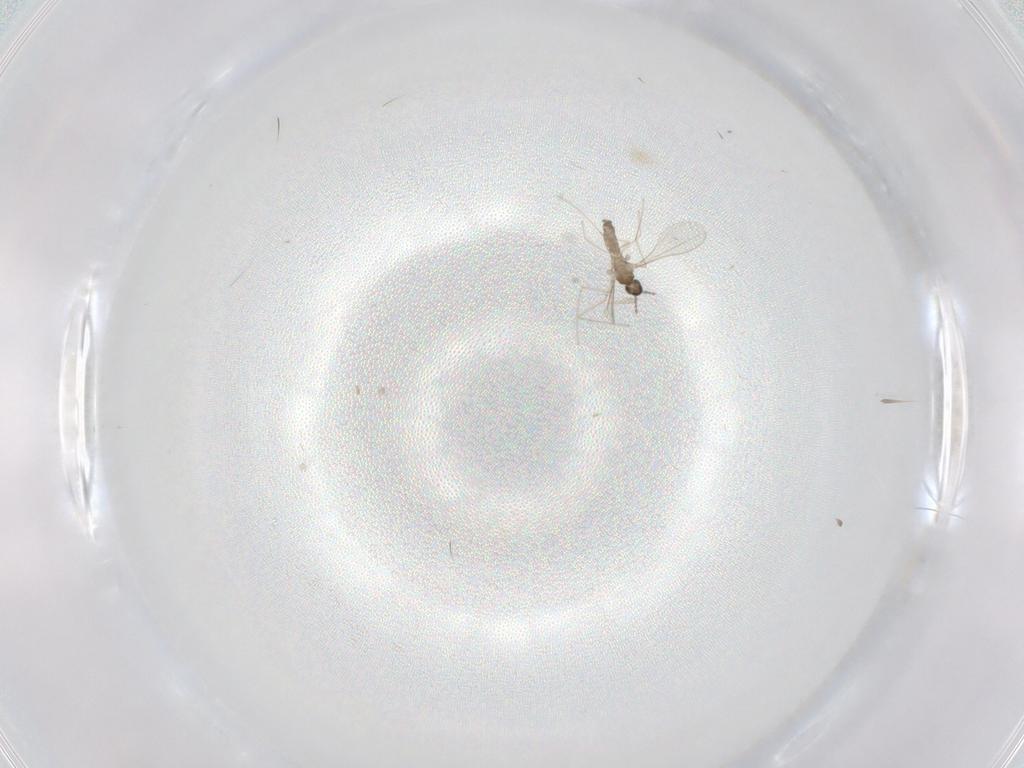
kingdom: Animalia
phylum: Arthropoda
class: Insecta
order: Diptera
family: Cecidomyiidae
